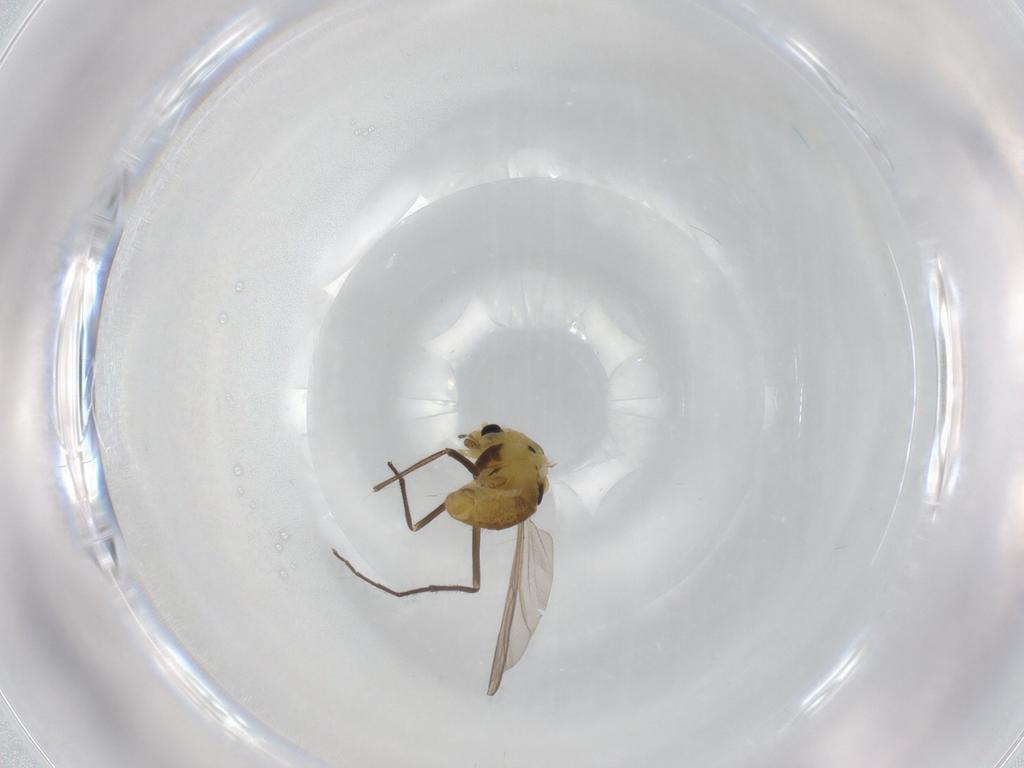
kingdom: Animalia
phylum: Arthropoda
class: Insecta
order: Diptera
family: Chironomidae
